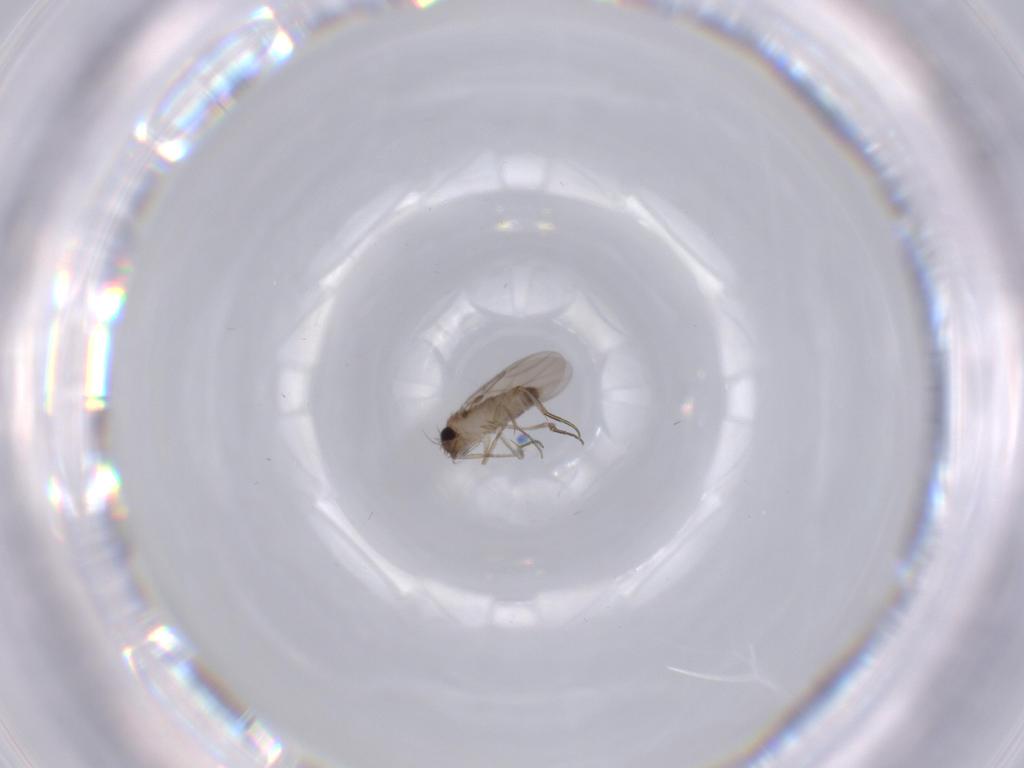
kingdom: Animalia
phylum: Arthropoda
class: Insecta
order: Diptera
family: Phoridae
